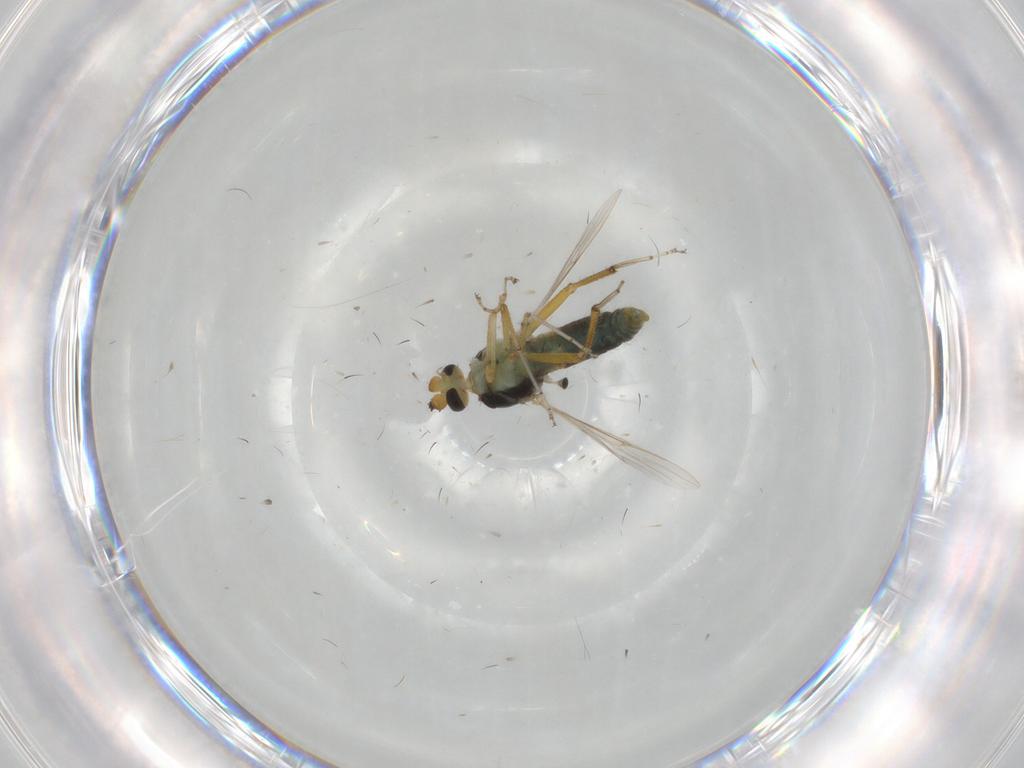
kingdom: Animalia
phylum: Arthropoda
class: Insecta
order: Diptera
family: Ceratopogonidae
